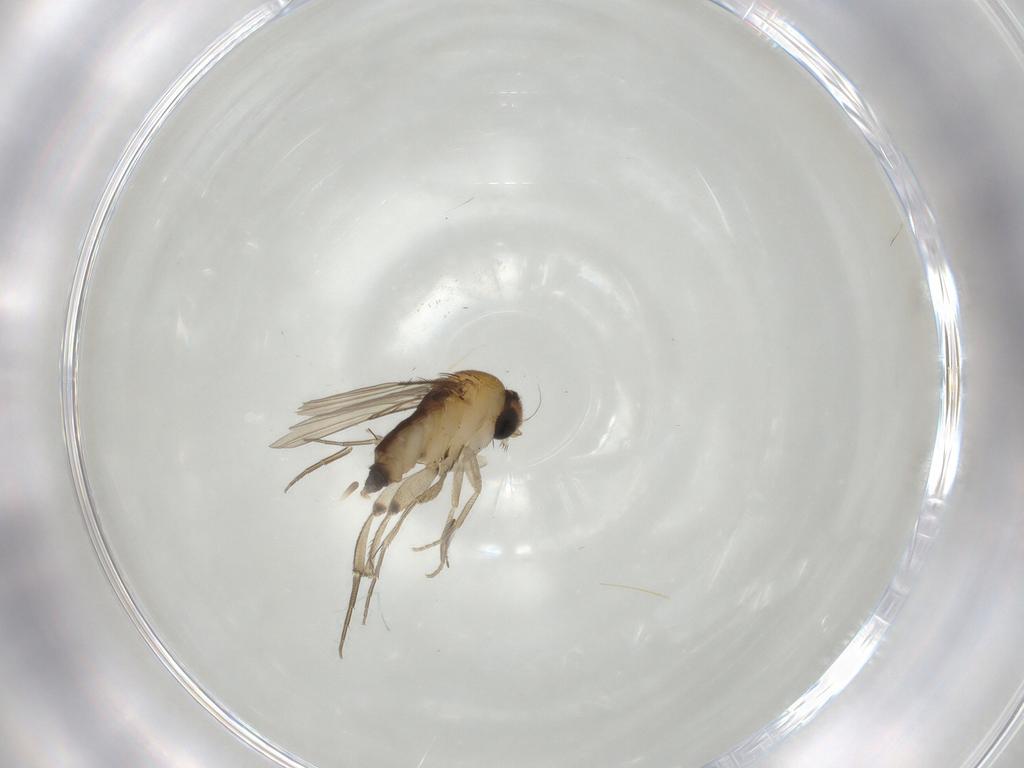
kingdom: Animalia
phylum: Arthropoda
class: Insecta
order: Diptera
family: Phoridae
